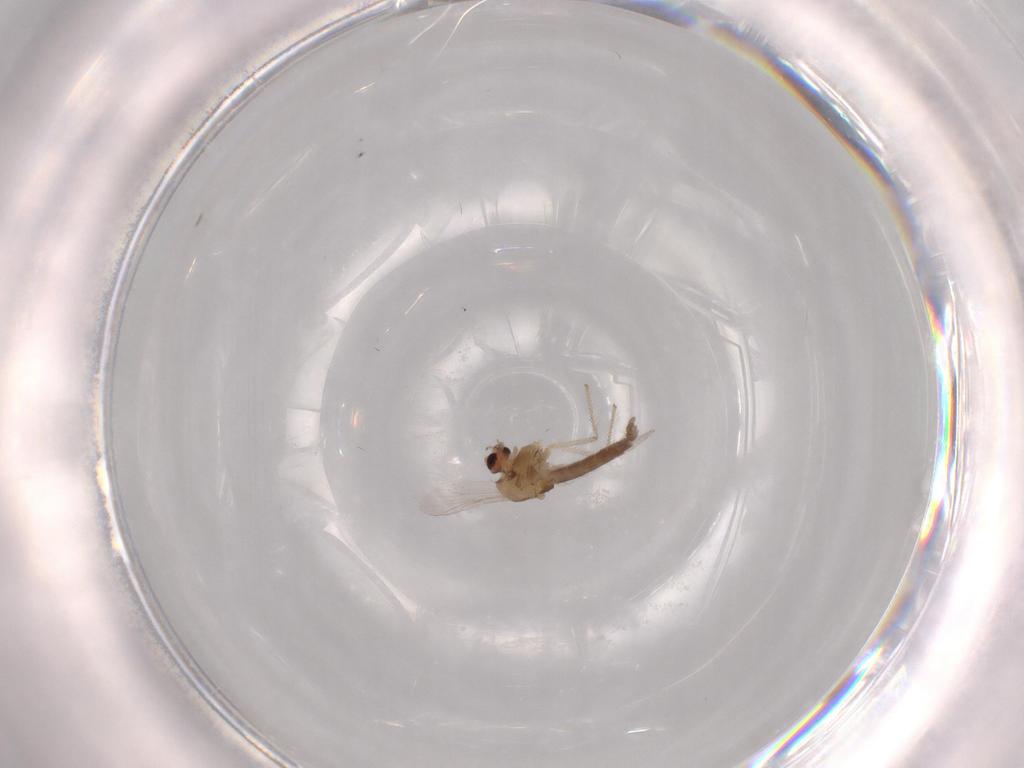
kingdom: Animalia
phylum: Arthropoda
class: Insecta
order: Diptera
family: Chironomidae
